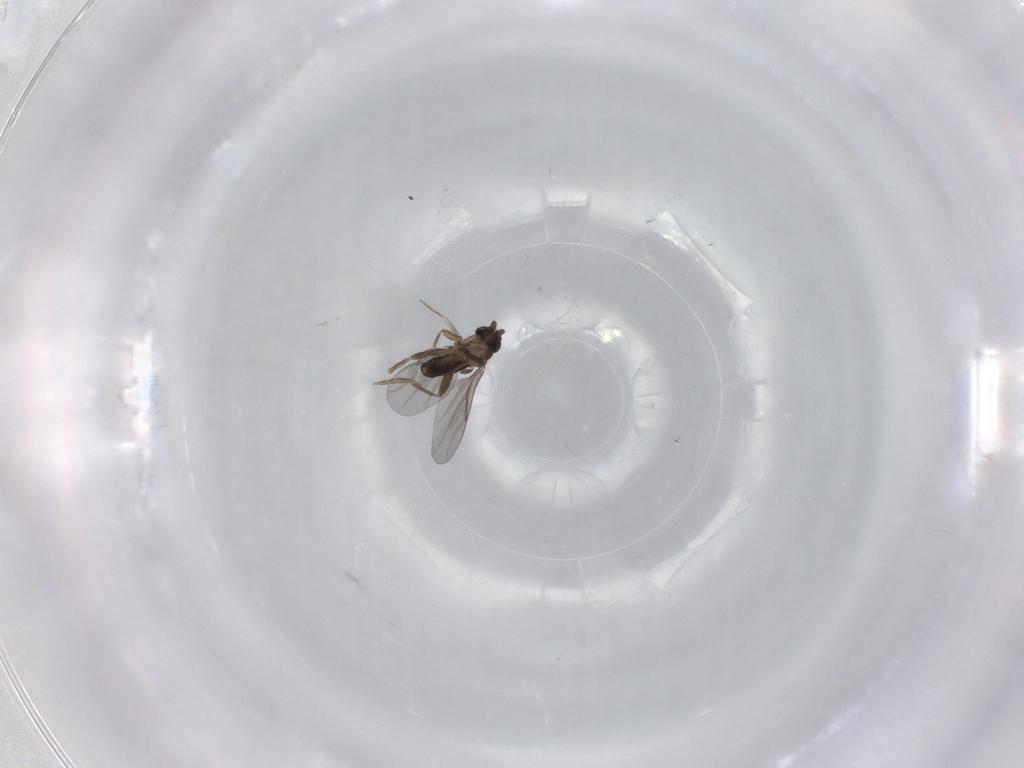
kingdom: Animalia
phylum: Arthropoda
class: Insecta
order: Diptera
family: Limoniidae
